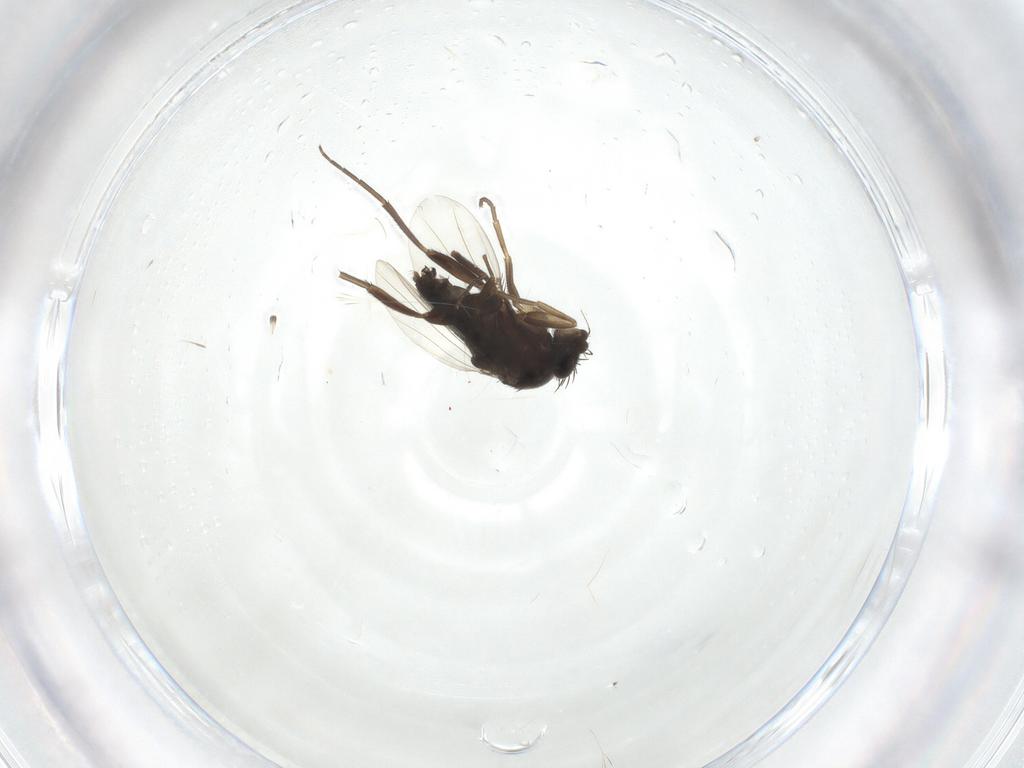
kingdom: Animalia
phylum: Arthropoda
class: Insecta
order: Diptera
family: Phoridae
